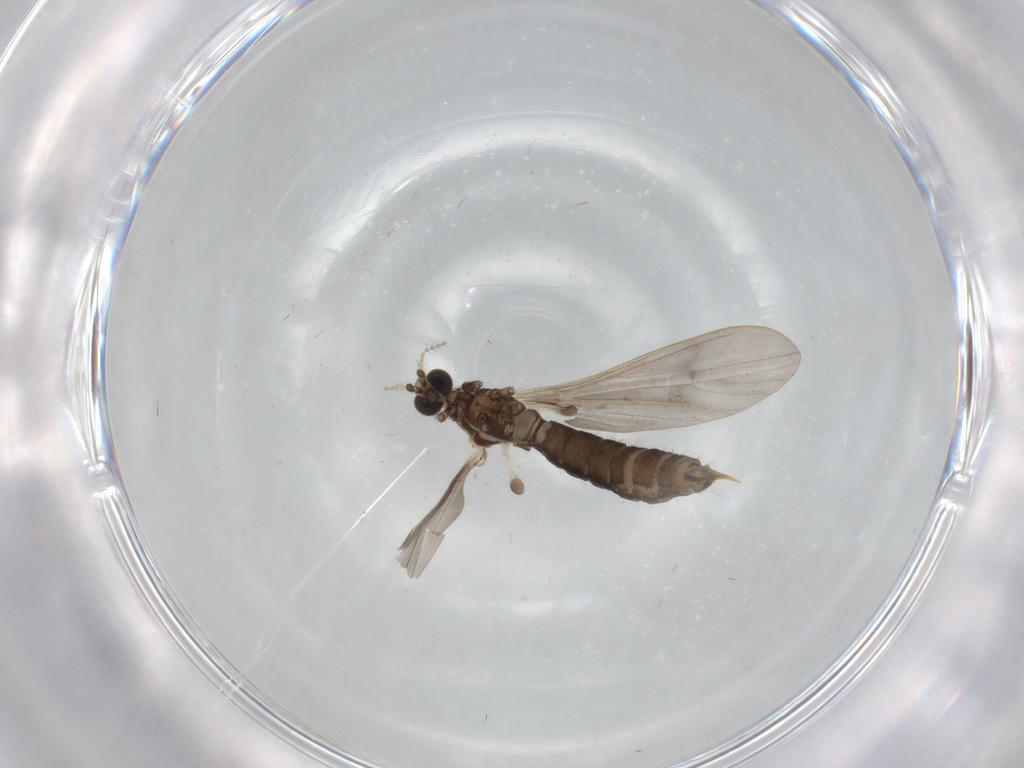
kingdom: Animalia
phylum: Arthropoda
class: Insecta
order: Diptera
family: Limoniidae
